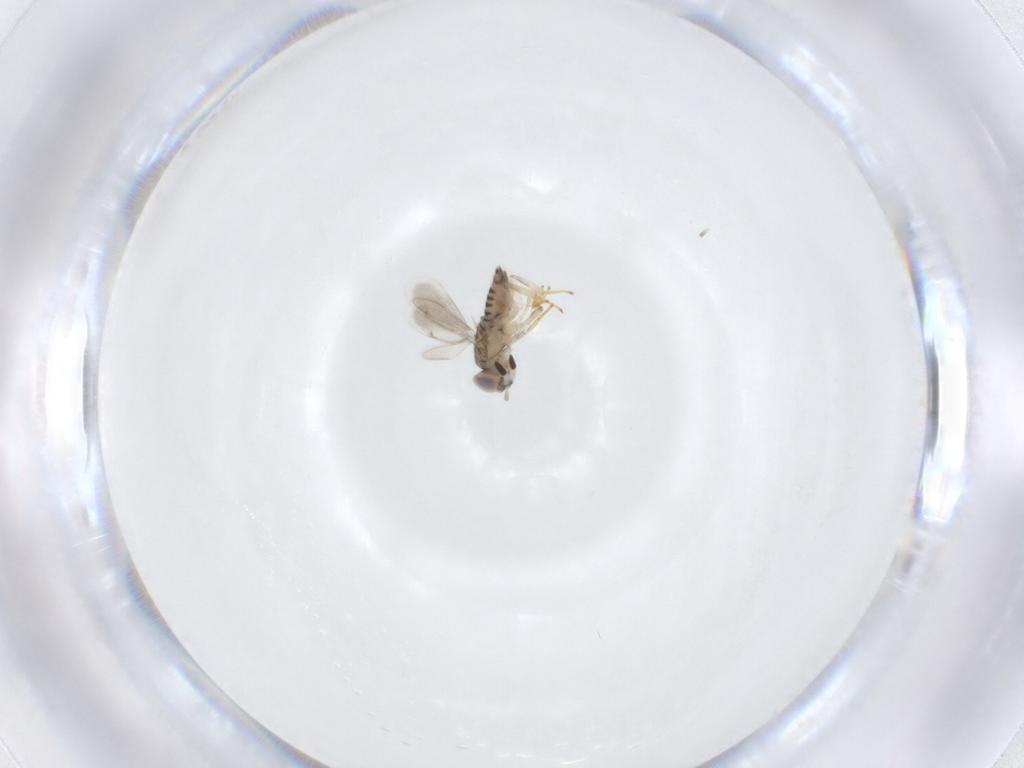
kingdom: Animalia
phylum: Arthropoda
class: Insecta
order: Hymenoptera
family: Aphelinidae
